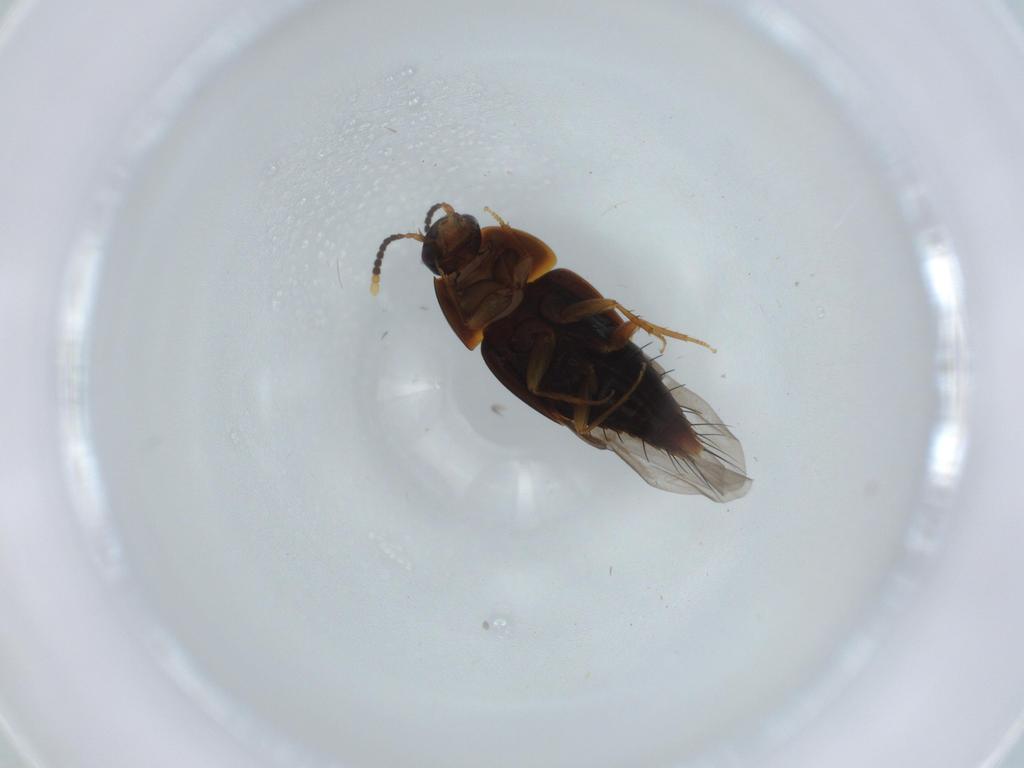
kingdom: Animalia
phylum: Arthropoda
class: Insecta
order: Coleoptera
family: Staphylinidae
